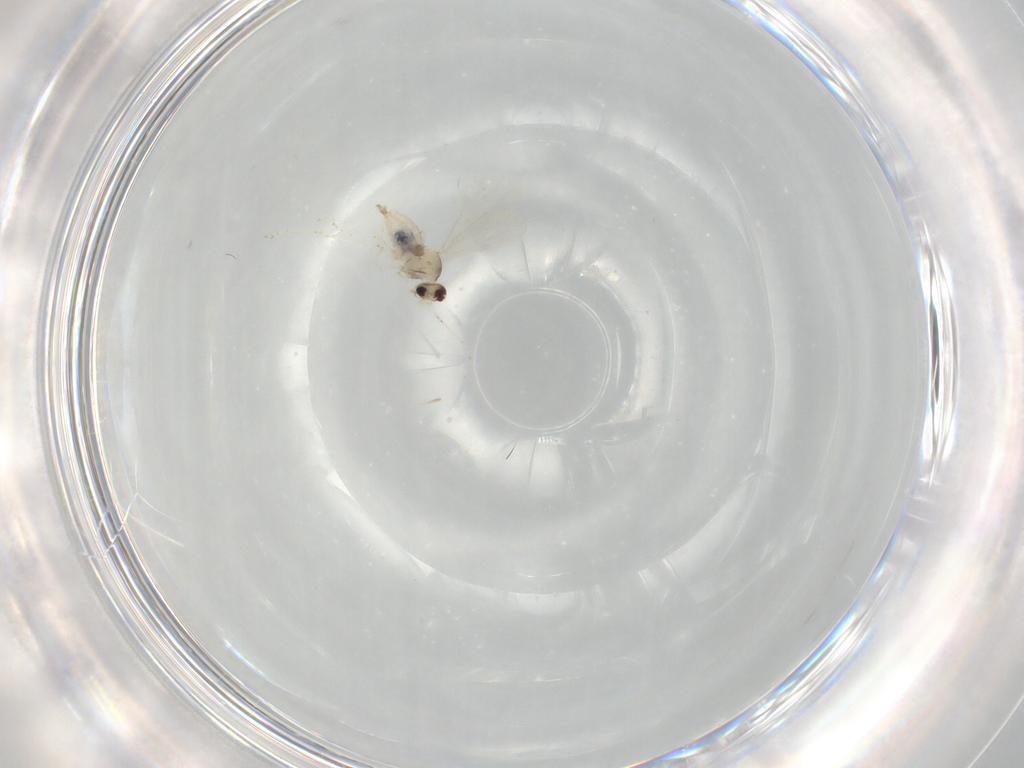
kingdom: Animalia
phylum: Arthropoda
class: Insecta
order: Diptera
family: Cecidomyiidae
